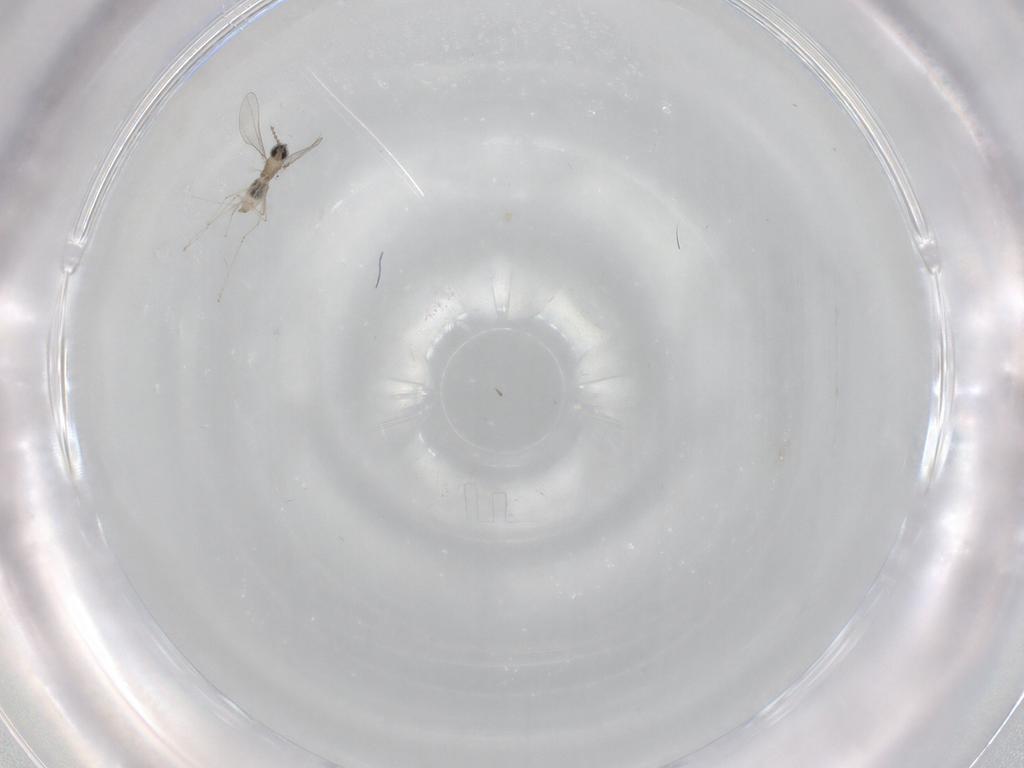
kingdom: Animalia
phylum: Arthropoda
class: Insecta
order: Diptera
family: Cecidomyiidae
